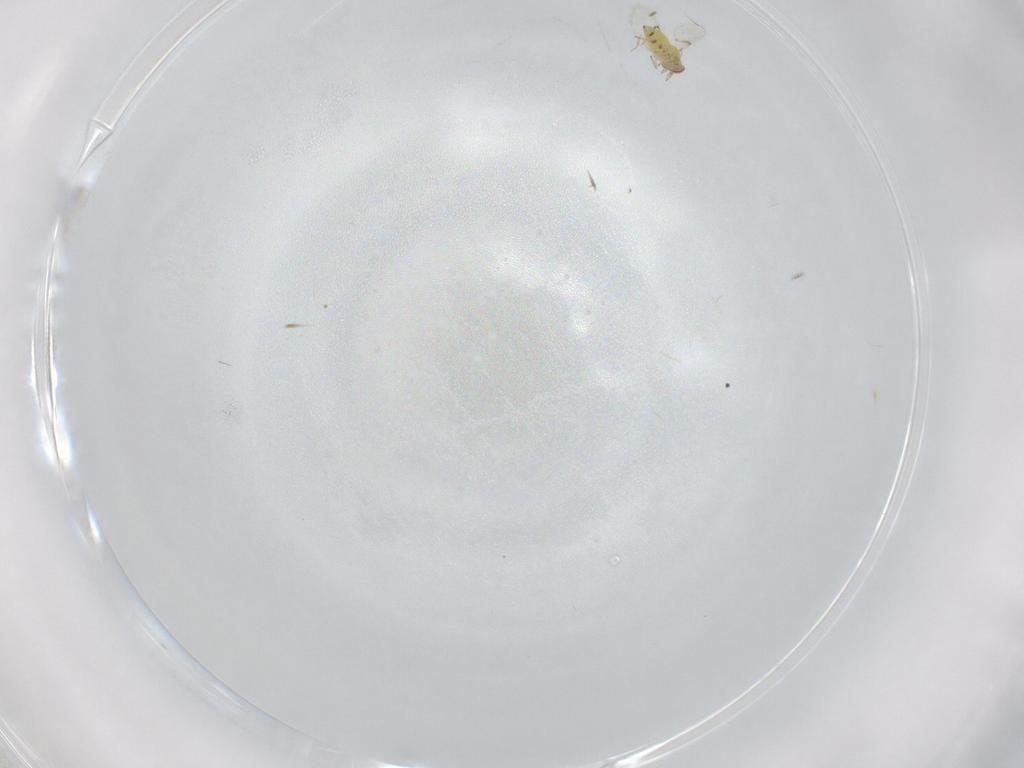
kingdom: Animalia
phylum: Arthropoda
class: Insecta
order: Hymenoptera
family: Trichogrammatidae
